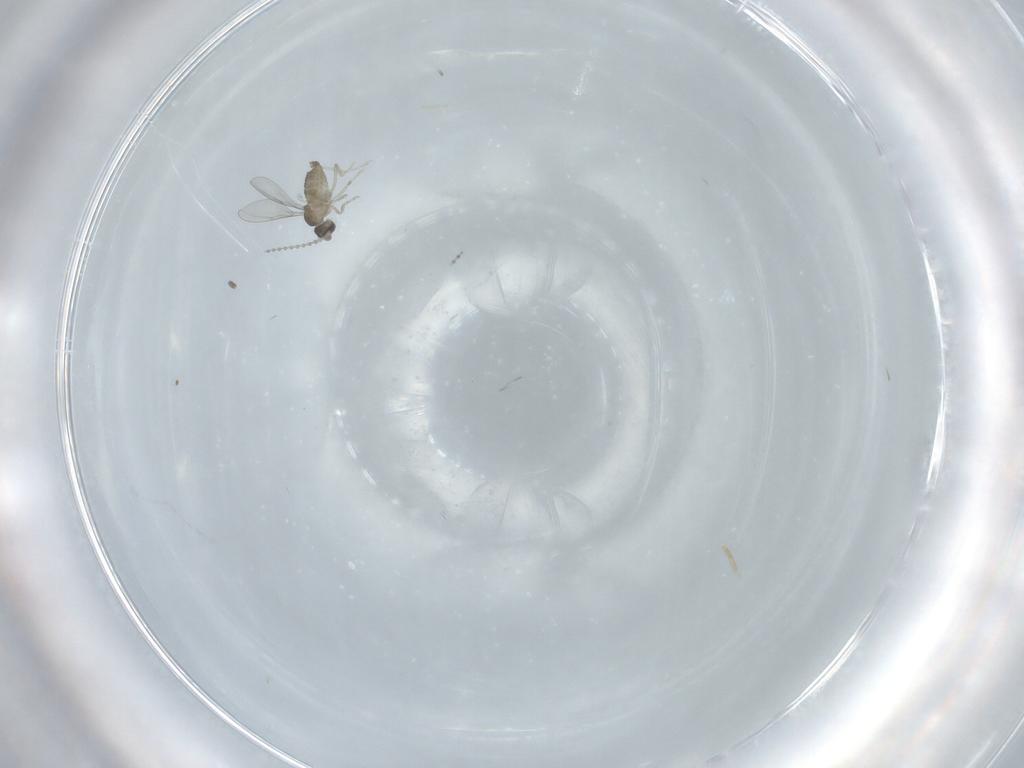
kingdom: Animalia
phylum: Arthropoda
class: Insecta
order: Diptera
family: Cecidomyiidae
